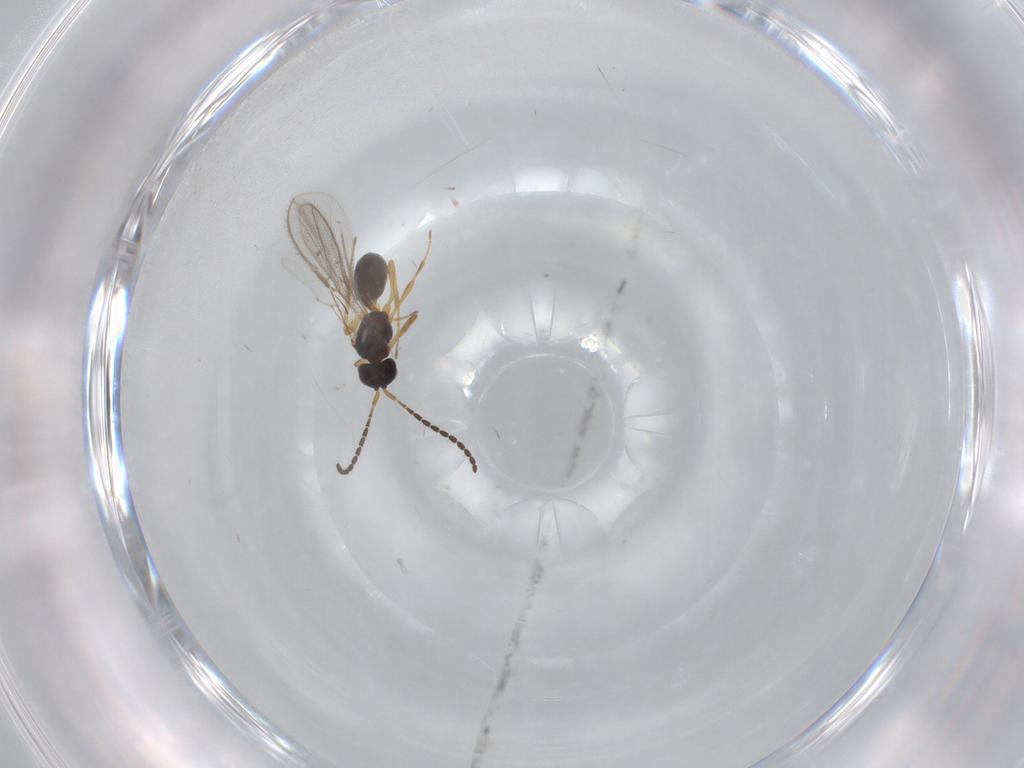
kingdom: Animalia
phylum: Arthropoda
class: Insecta
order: Hymenoptera
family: Braconidae
